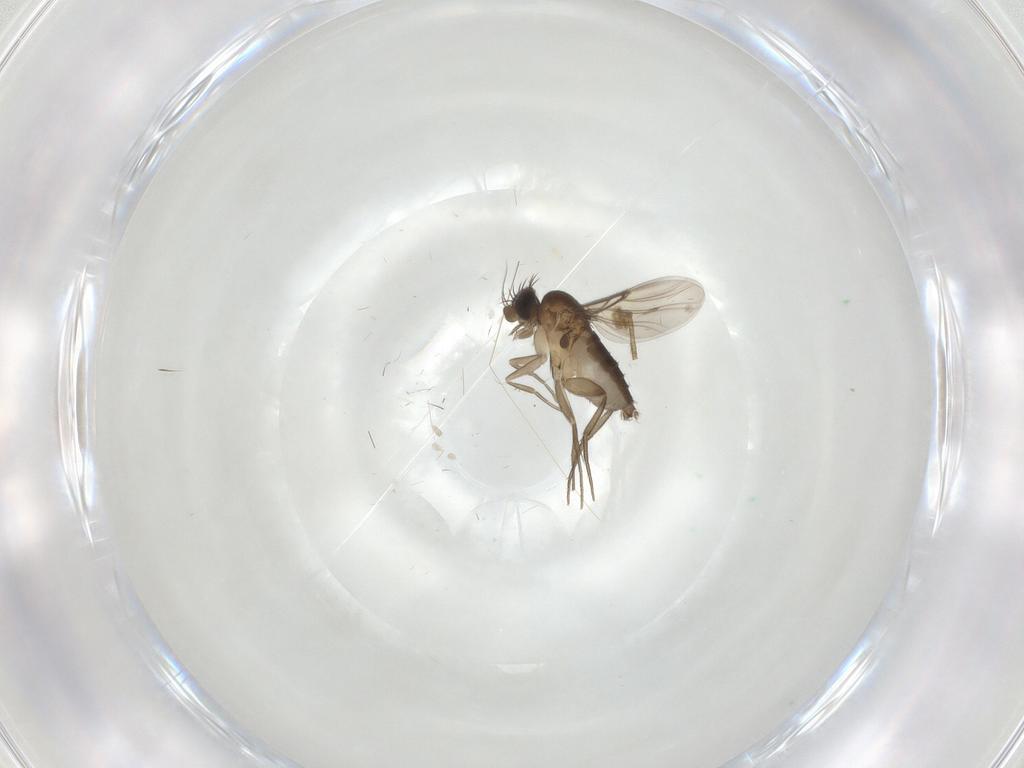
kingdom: Animalia
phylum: Arthropoda
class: Insecta
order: Diptera
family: Phoridae
